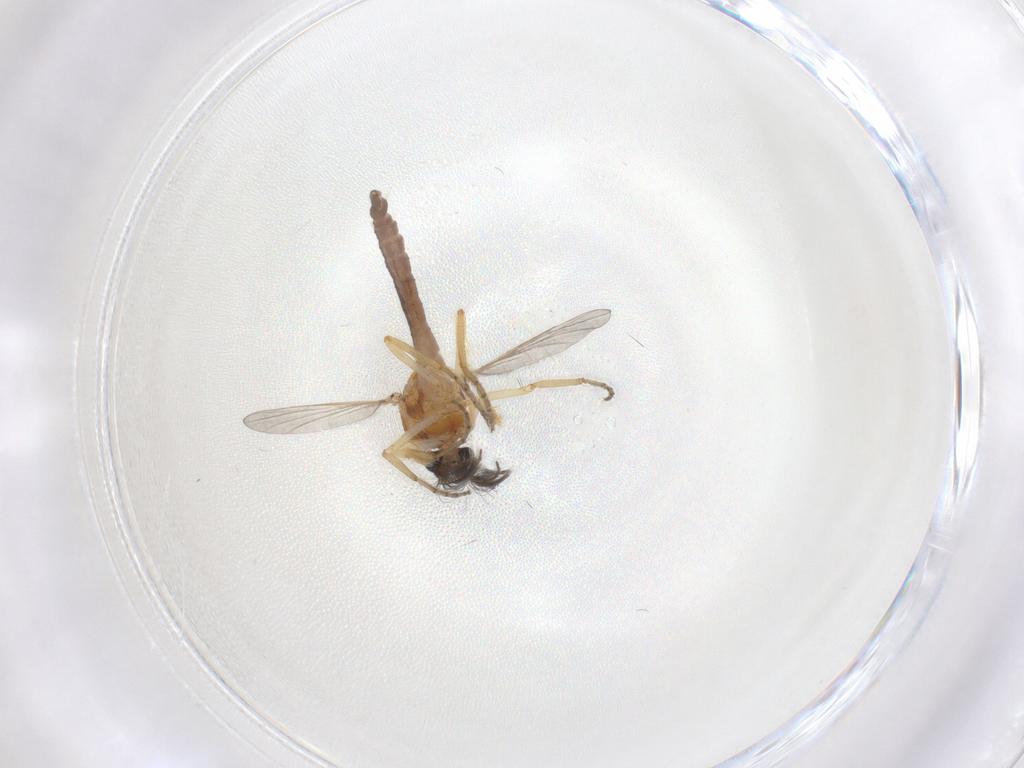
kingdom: Animalia
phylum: Arthropoda
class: Insecta
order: Diptera
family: Ceratopogonidae
